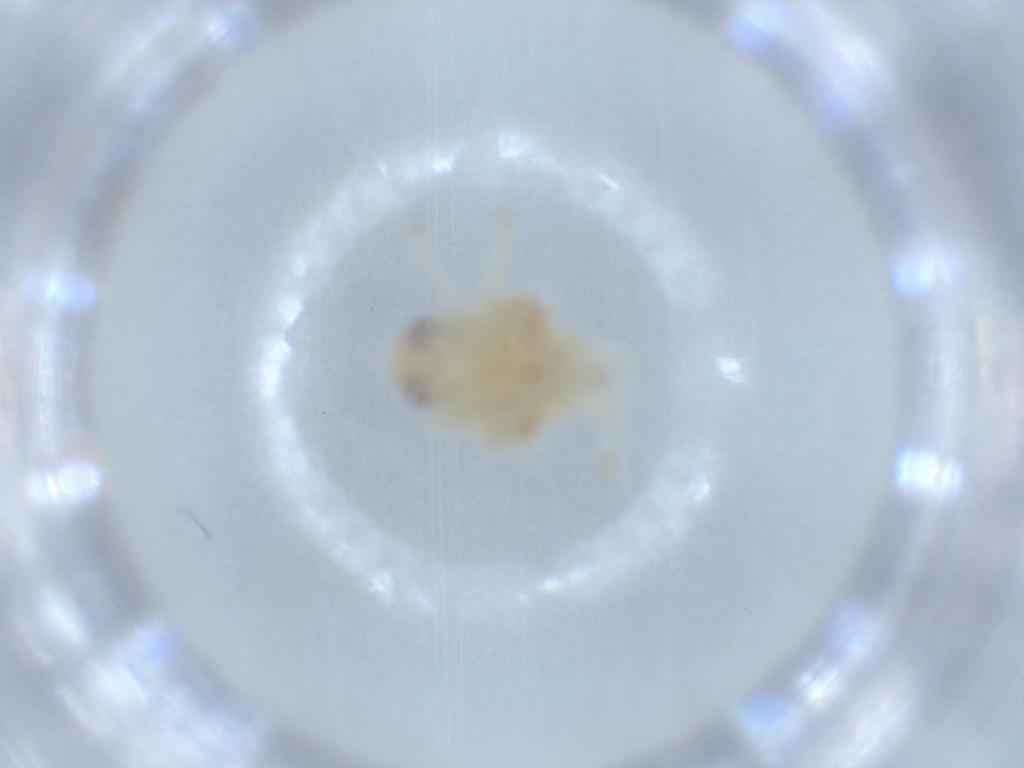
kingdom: Animalia
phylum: Arthropoda
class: Insecta
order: Hemiptera
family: Nogodinidae
